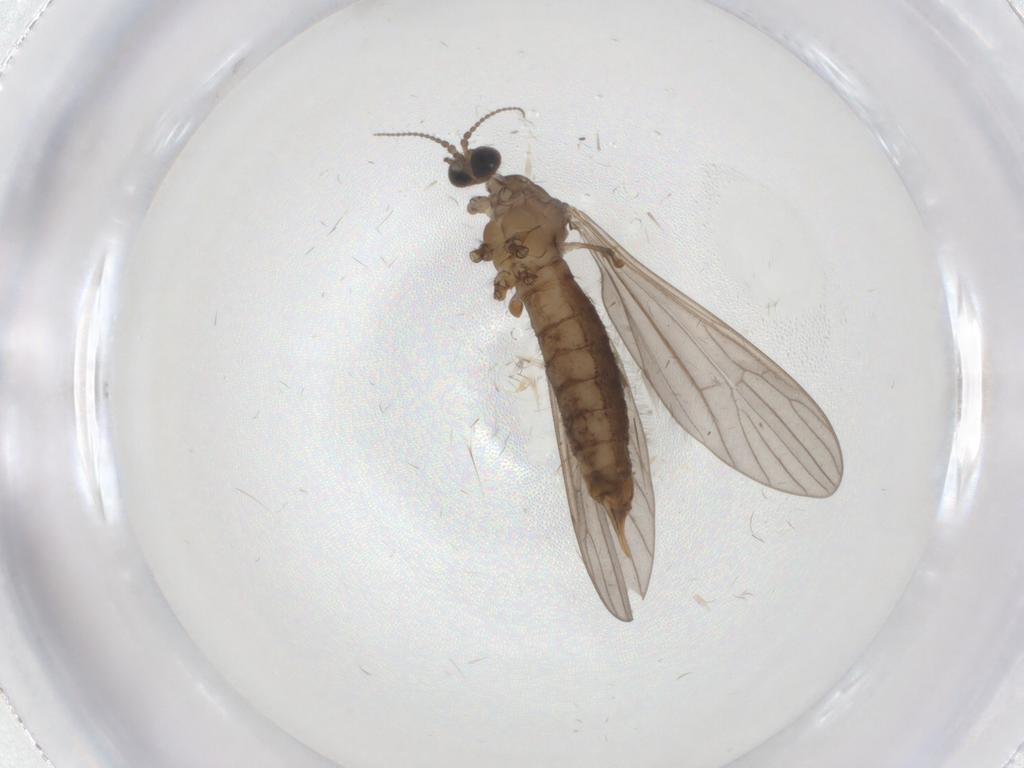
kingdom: Animalia
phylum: Arthropoda
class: Insecta
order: Diptera
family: Limoniidae
